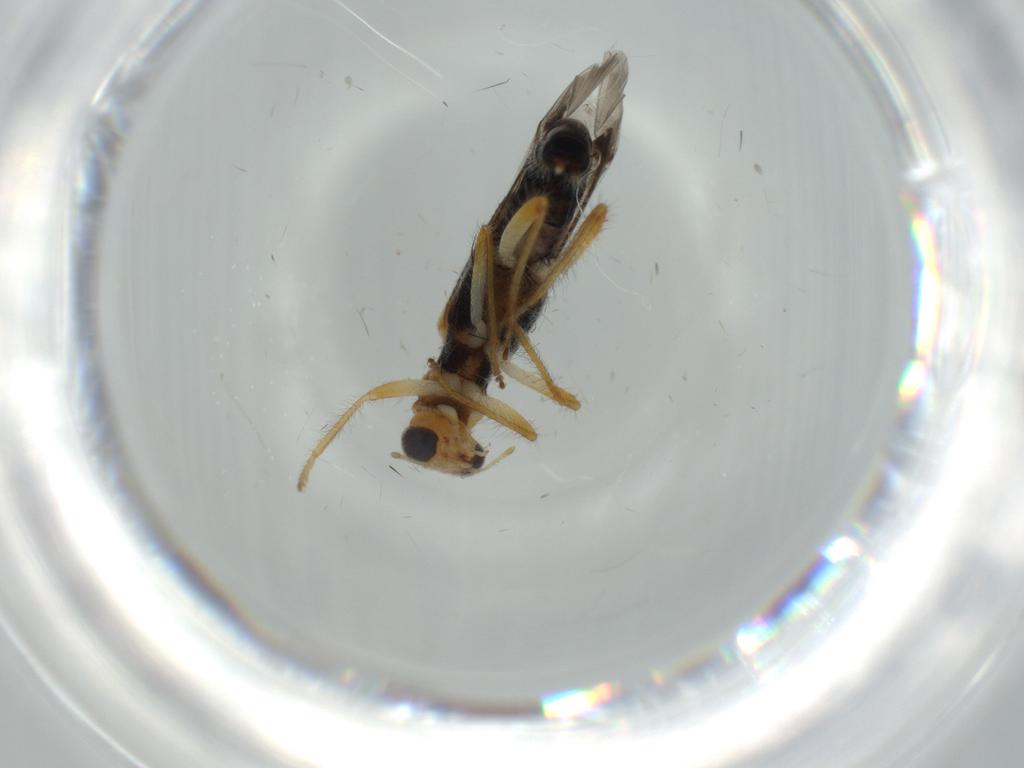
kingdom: Animalia
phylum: Arthropoda
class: Insecta
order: Coleoptera
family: Cleridae
